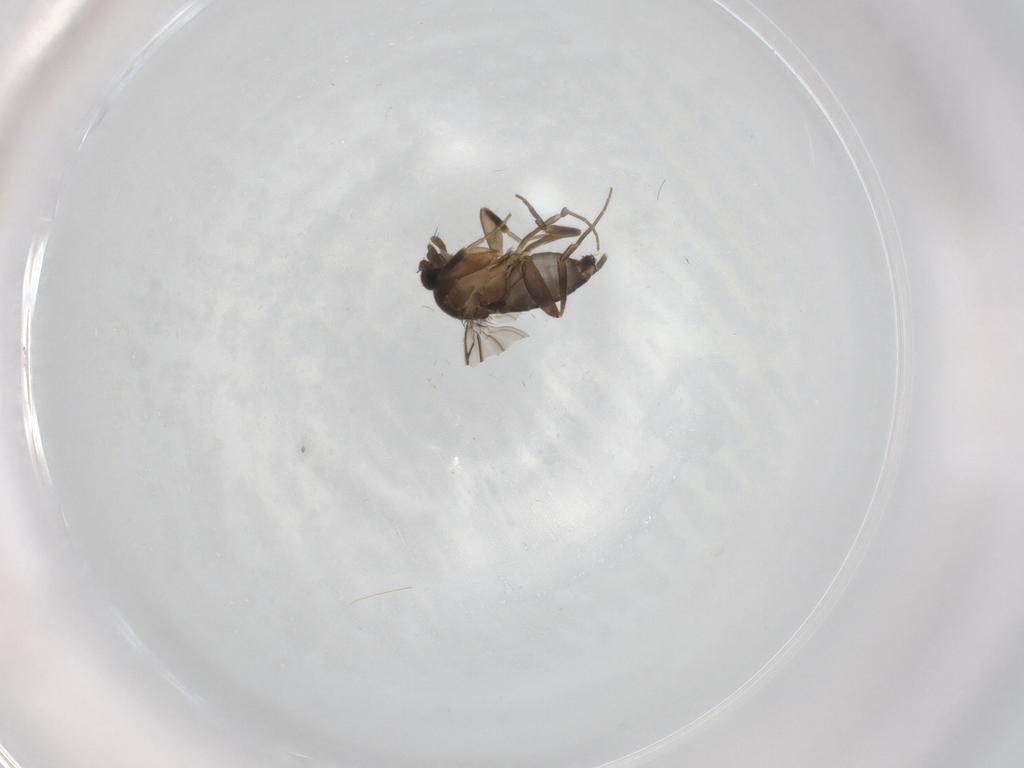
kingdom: Animalia
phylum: Arthropoda
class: Insecta
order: Diptera
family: Phoridae
